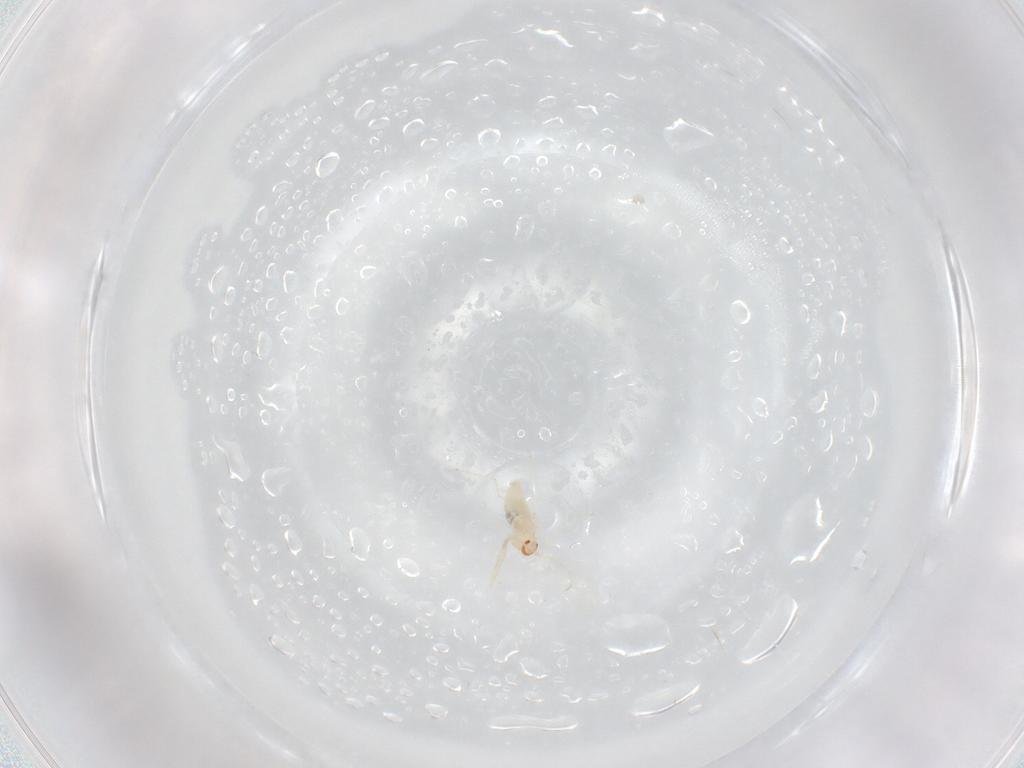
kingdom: Animalia
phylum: Arthropoda
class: Insecta
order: Diptera
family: Cecidomyiidae
